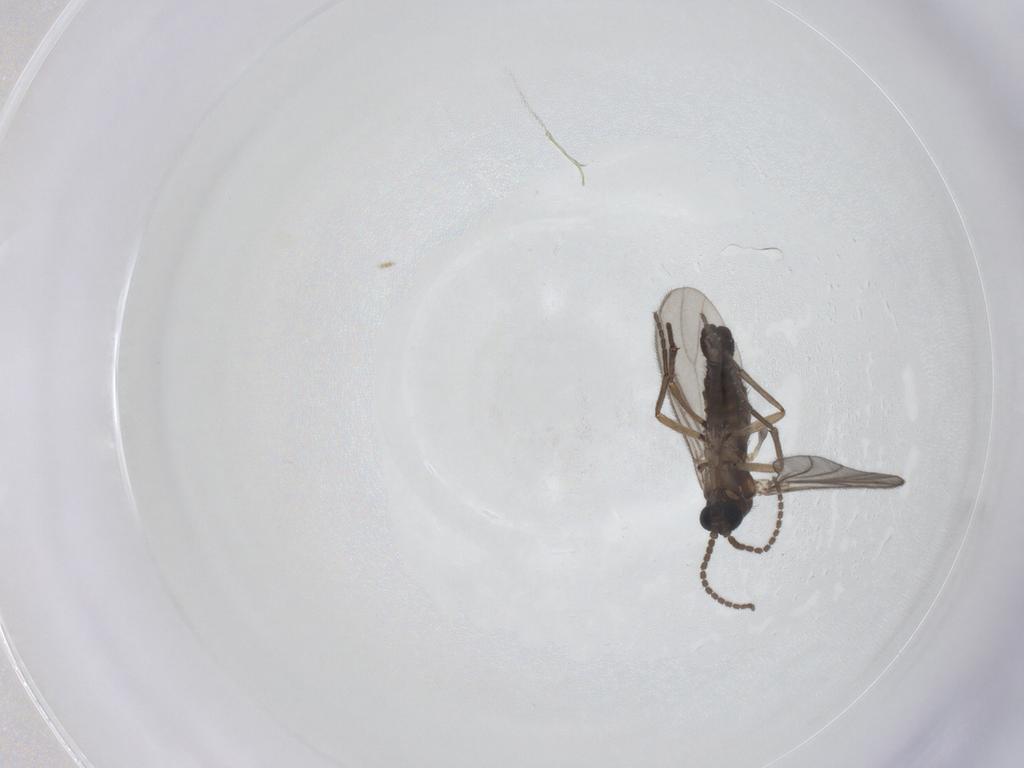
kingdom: Animalia
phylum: Arthropoda
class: Insecta
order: Diptera
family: Sciaridae
